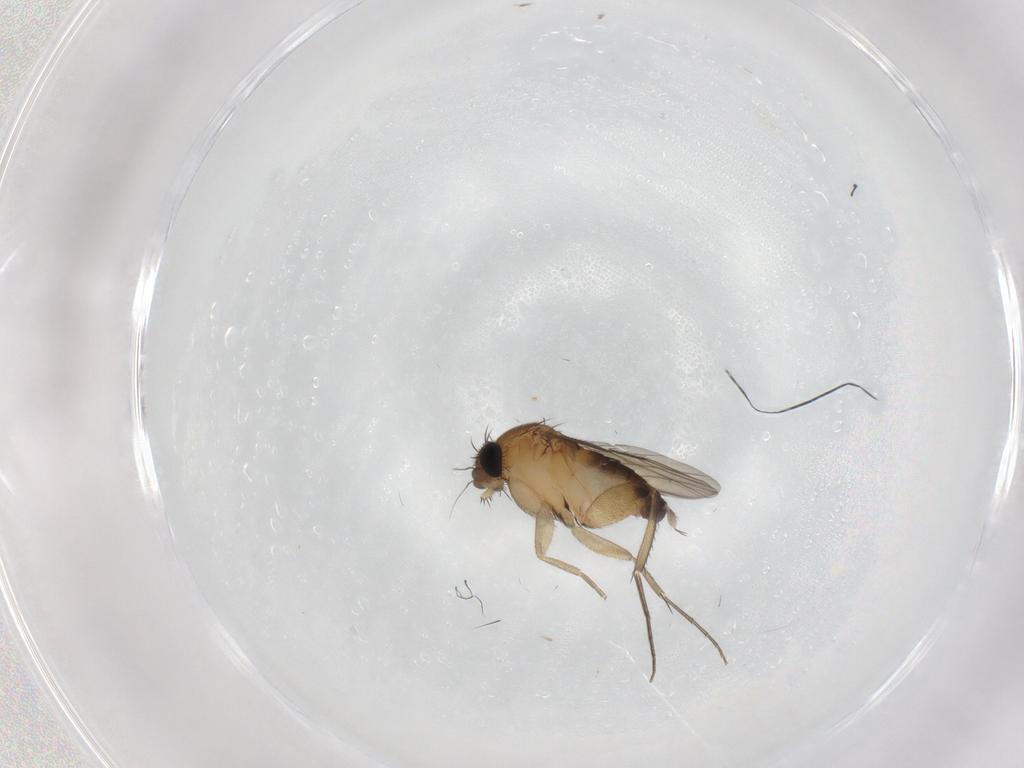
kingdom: Animalia
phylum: Arthropoda
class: Insecta
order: Diptera
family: Phoridae
